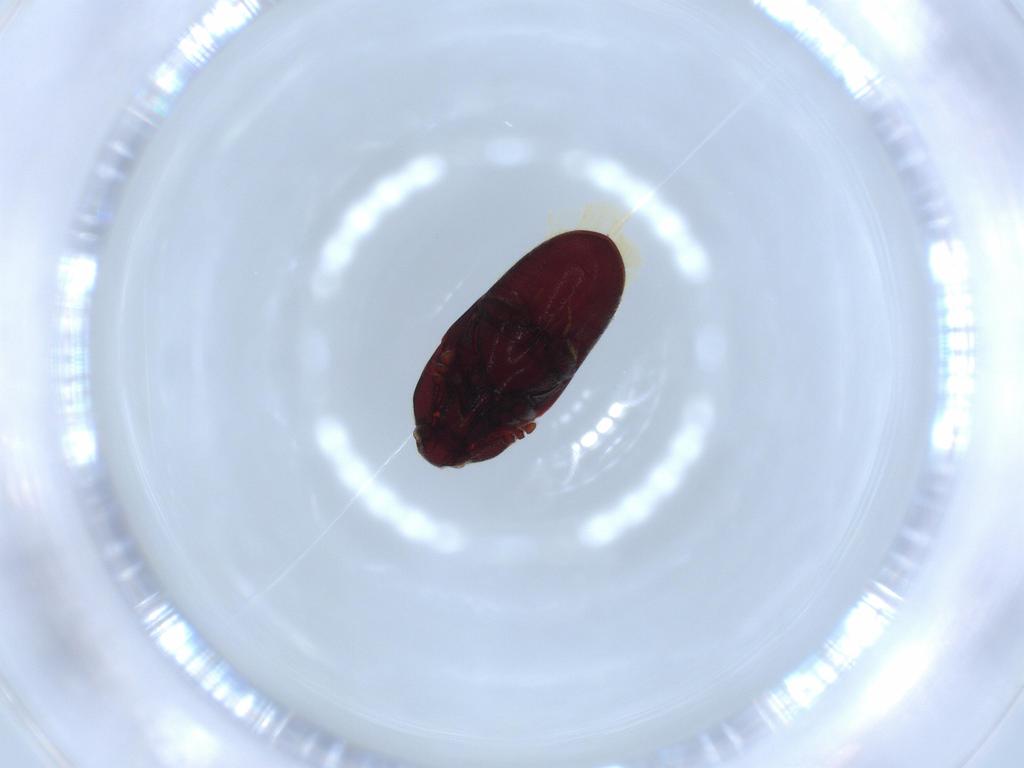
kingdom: Animalia
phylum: Arthropoda
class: Insecta
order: Coleoptera
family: Throscidae
